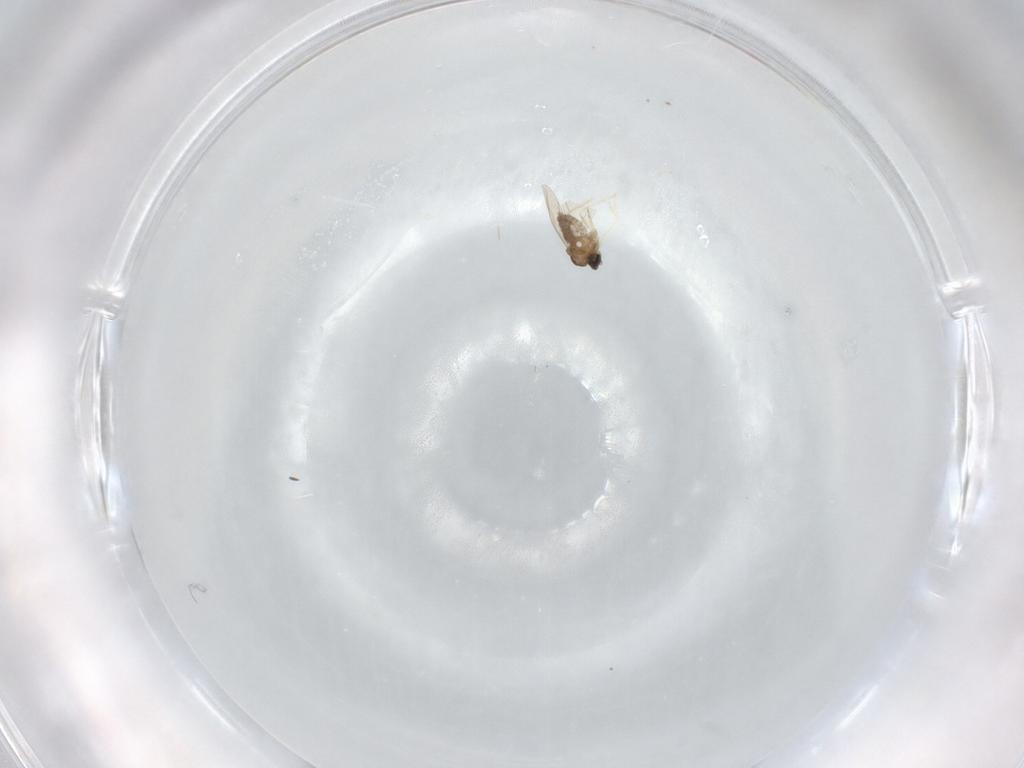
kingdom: Animalia
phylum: Arthropoda
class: Insecta
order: Diptera
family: Cecidomyiidae
